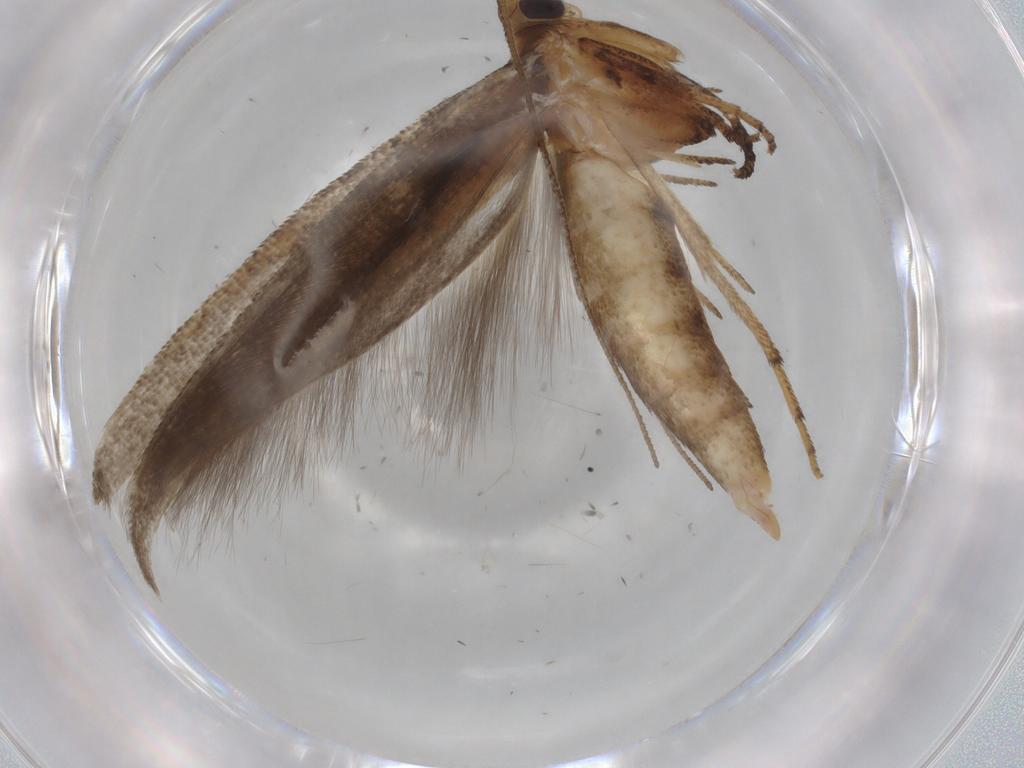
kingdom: Animalia
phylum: Arthropoda
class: Insecta
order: Lepidoptera
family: Yponomeutidae
